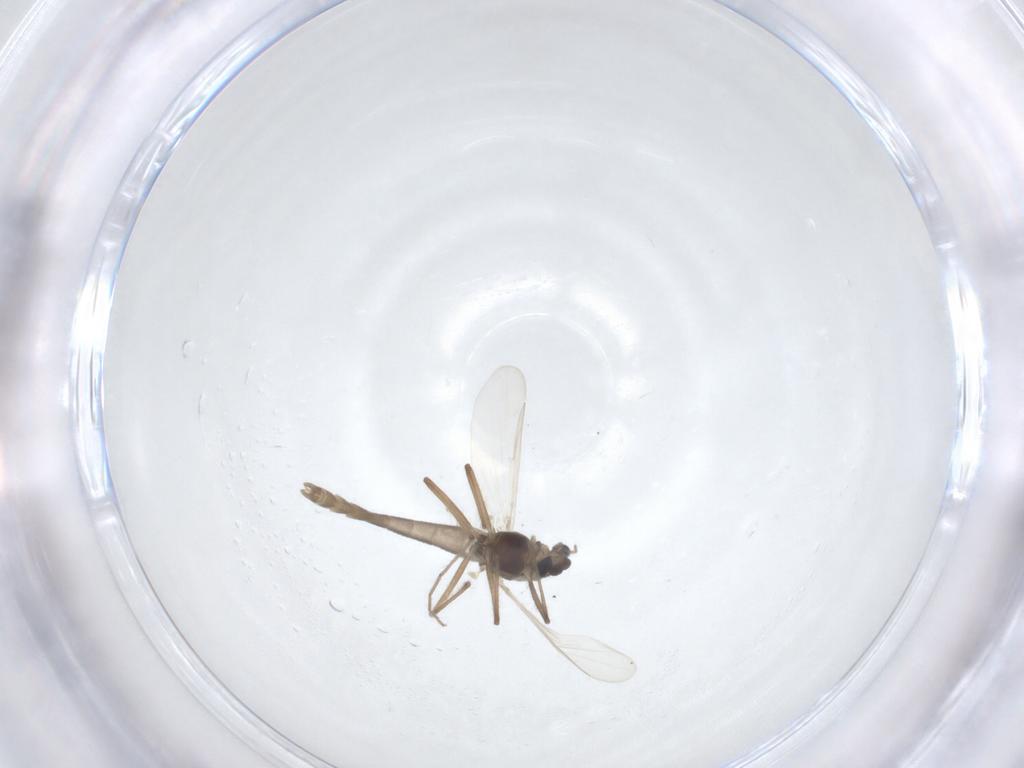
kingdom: Animalia
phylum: Arthropoda
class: Insecta
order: Diptera
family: Chironomidae
